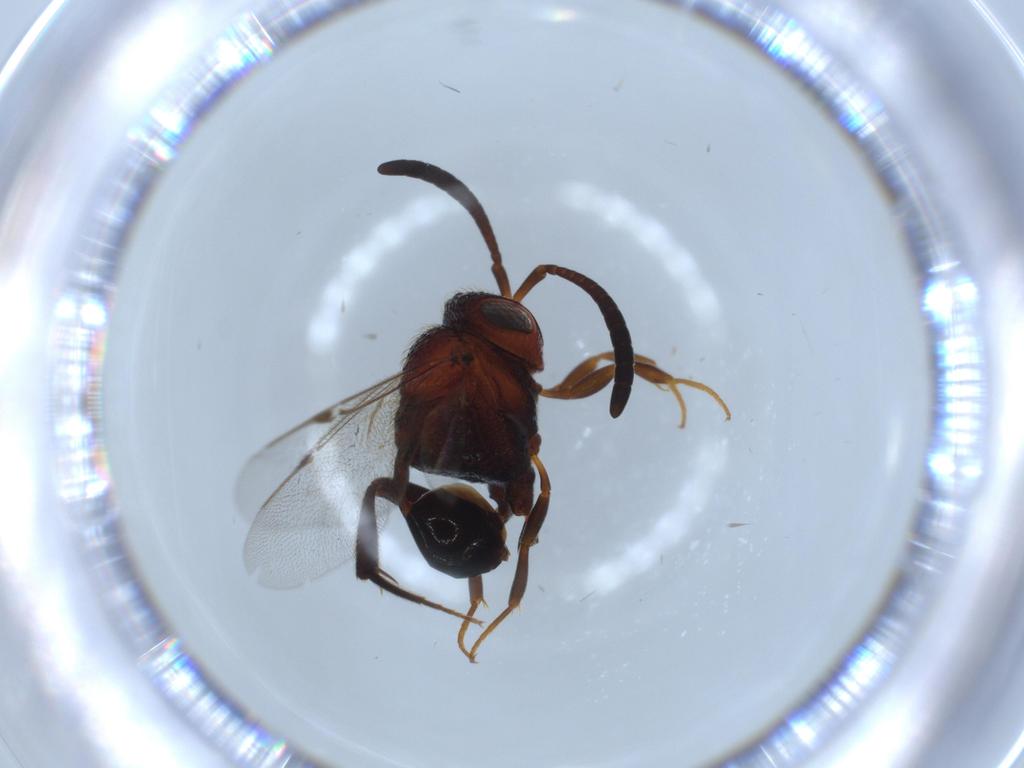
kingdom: Animalia
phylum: Arthropoda
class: Insecta
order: Hymenoptera
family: Evaniidae
